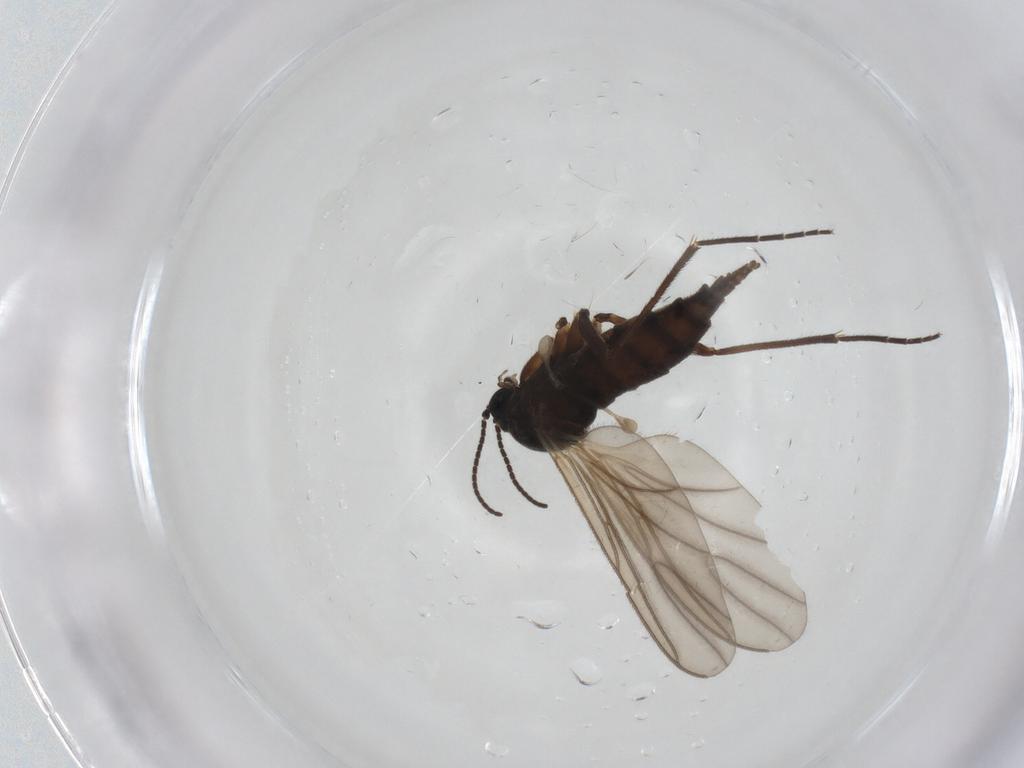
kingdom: Animalia
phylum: Arthropoda
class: Insecta
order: Diptera
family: Sciaridae
